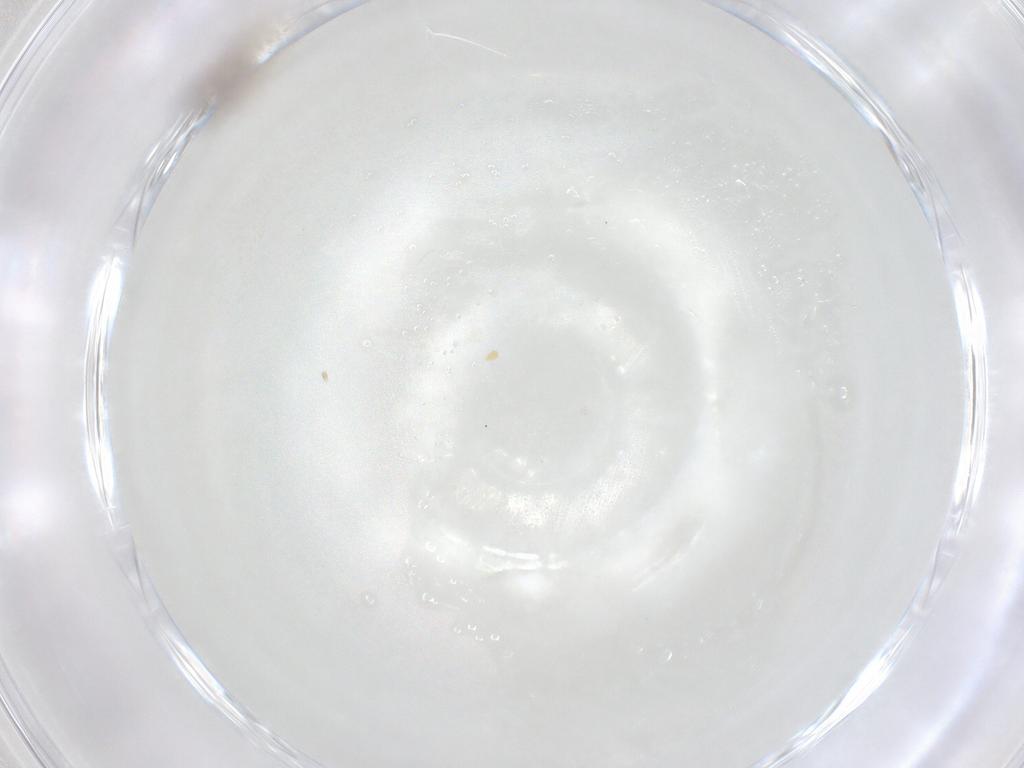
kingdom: Animalia
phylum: Arthropoda
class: Insecta
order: Diptera
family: Cecidomyiidae
